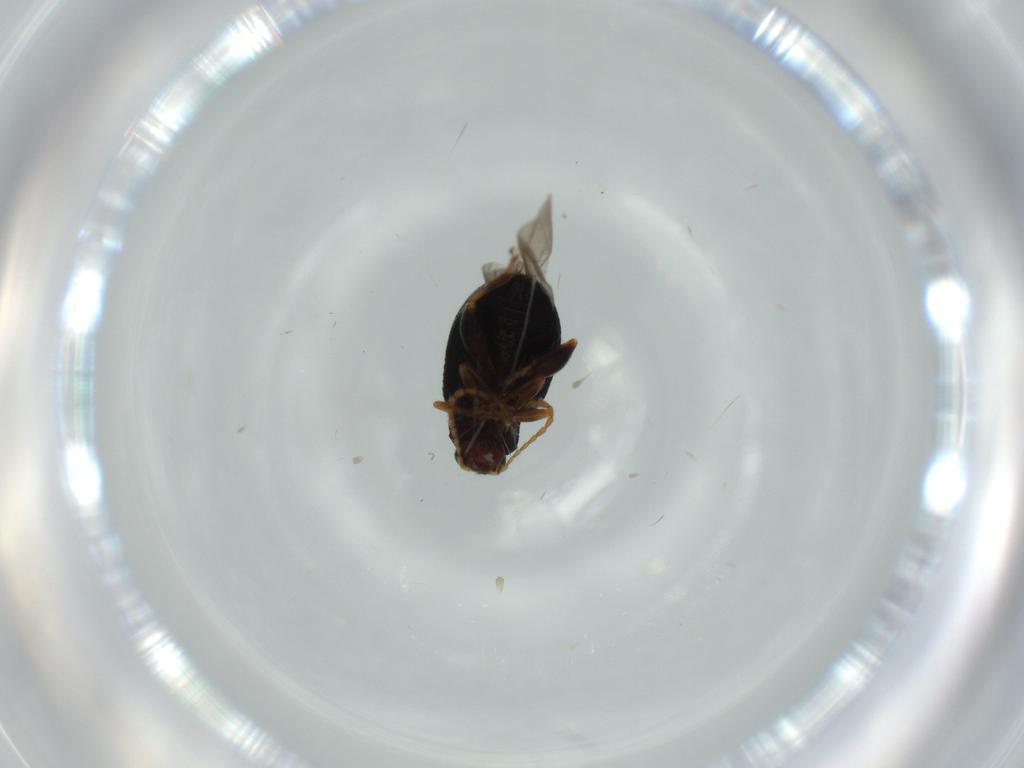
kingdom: Animalia
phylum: Arthropoda
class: Insecta
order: Coleoptera
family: Chrysomelidae
